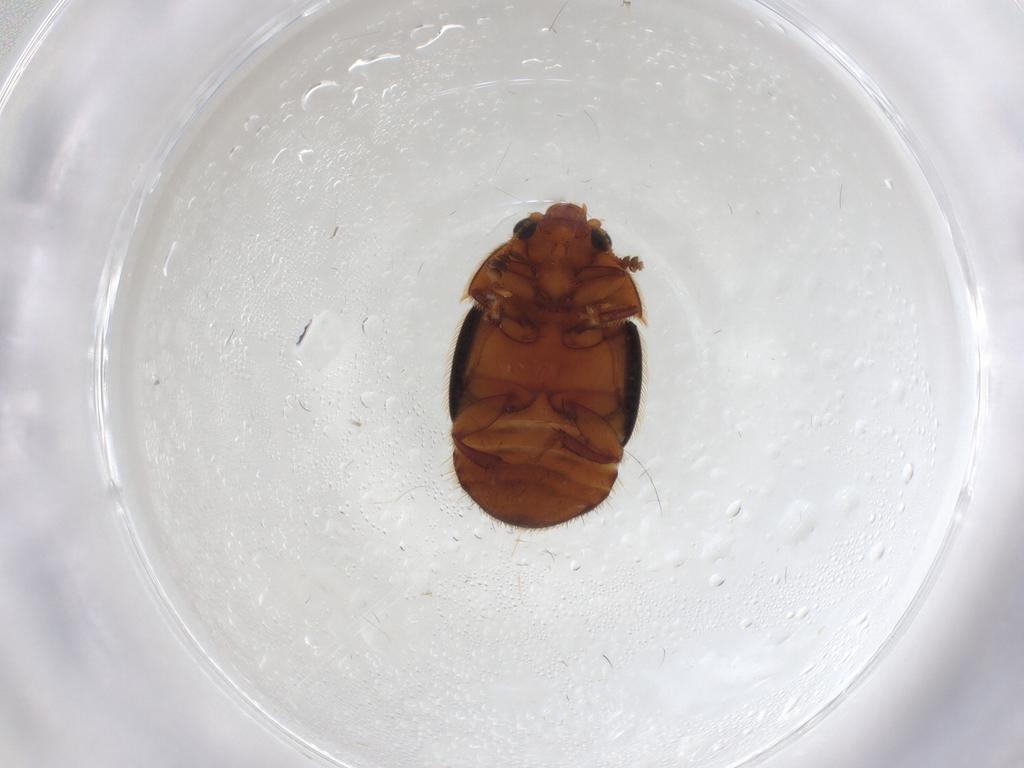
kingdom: Animalia
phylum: Arthropoda
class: Insecta
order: Coleoptera
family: Nitidulidae
